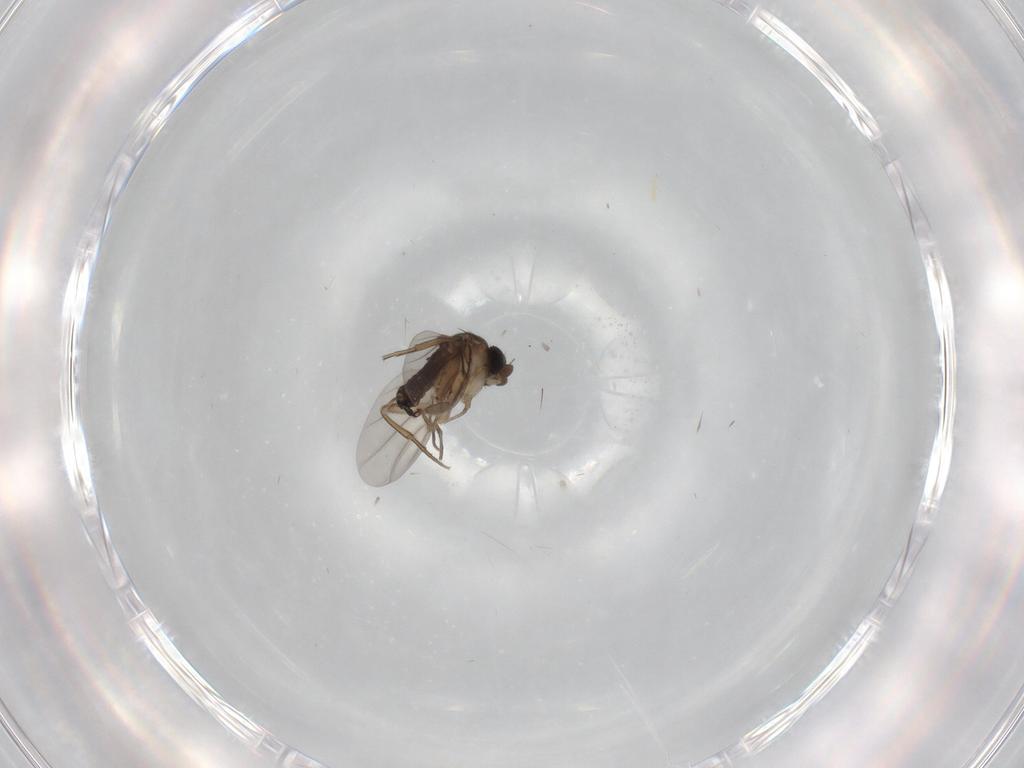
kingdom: Animalia
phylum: Arthropoda
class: Insecta
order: Diptera
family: Phoridae
